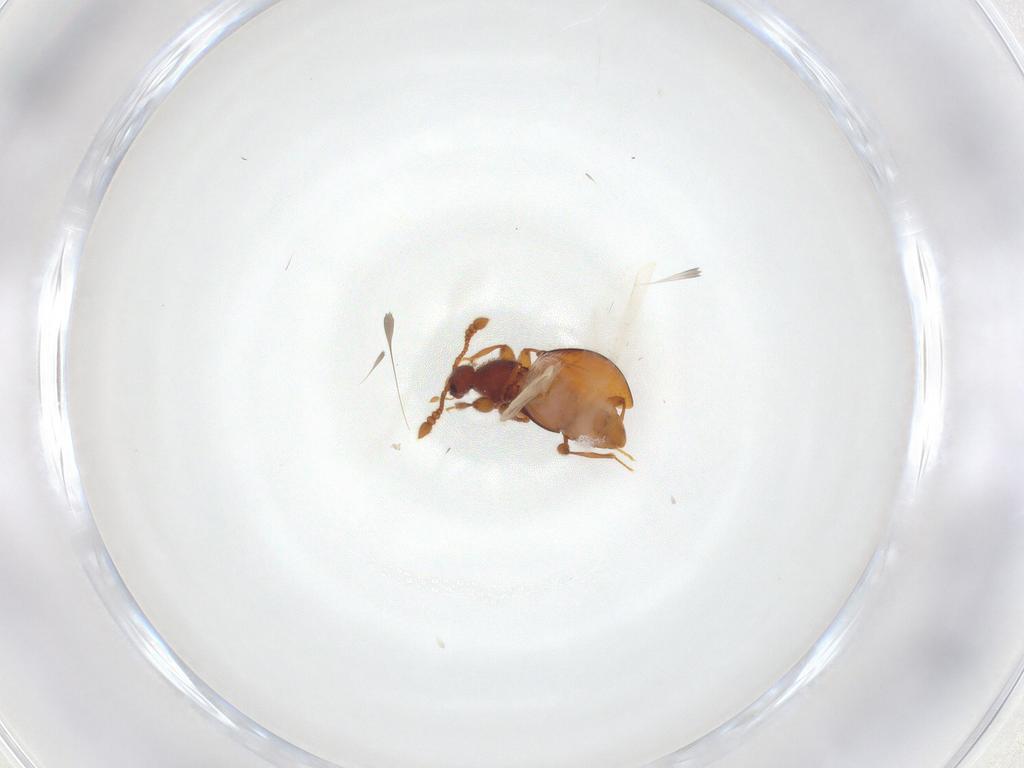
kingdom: Animalia
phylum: Arthropoda
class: Insecta
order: Coleoptera
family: Staphylinidae
